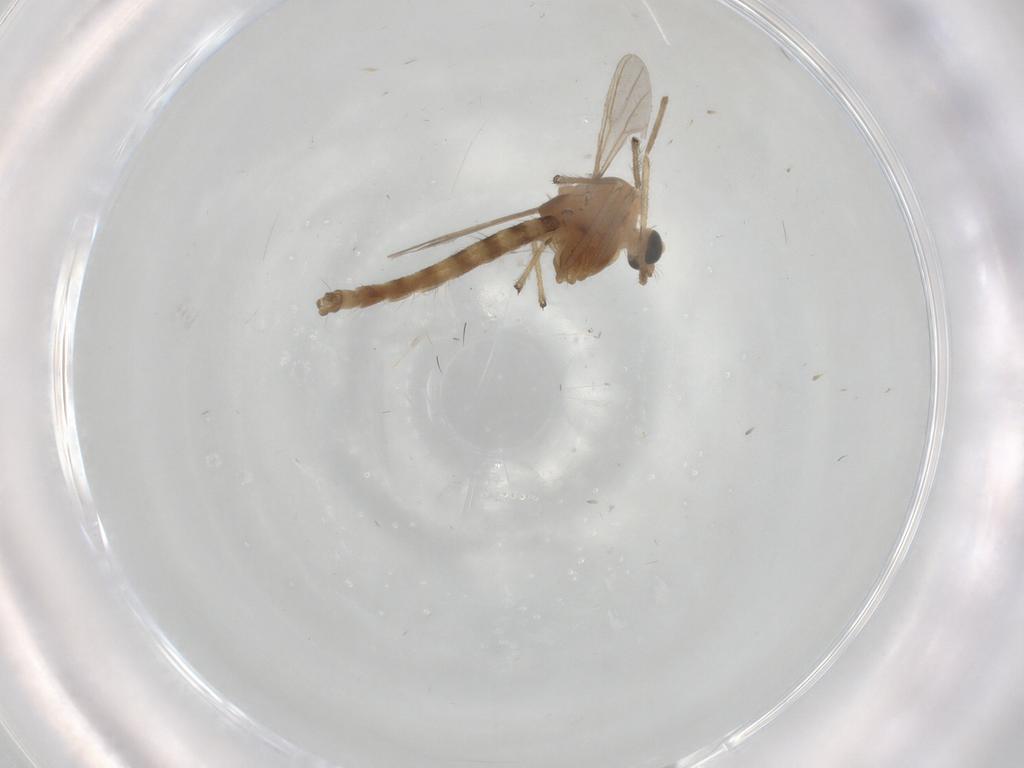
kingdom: Animalia
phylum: Arthropoda
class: Insecta
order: Diptera
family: Chironomidae
